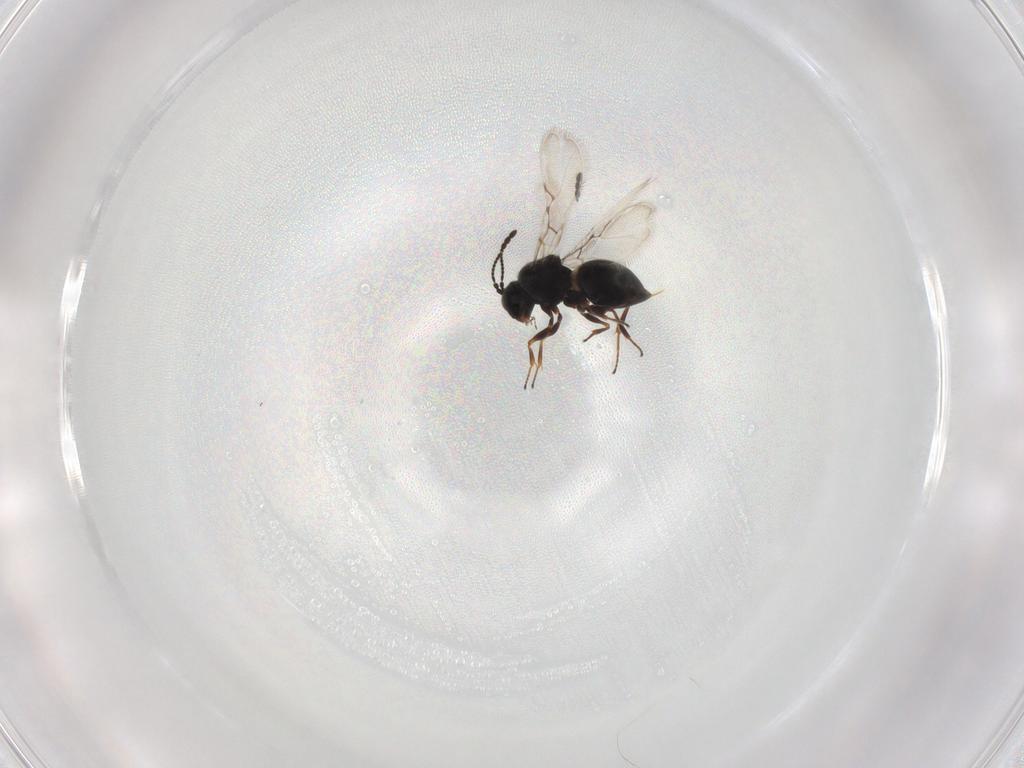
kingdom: Animalia
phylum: Arthropoda
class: Insecta
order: Hymenoptera
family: Figitidae
